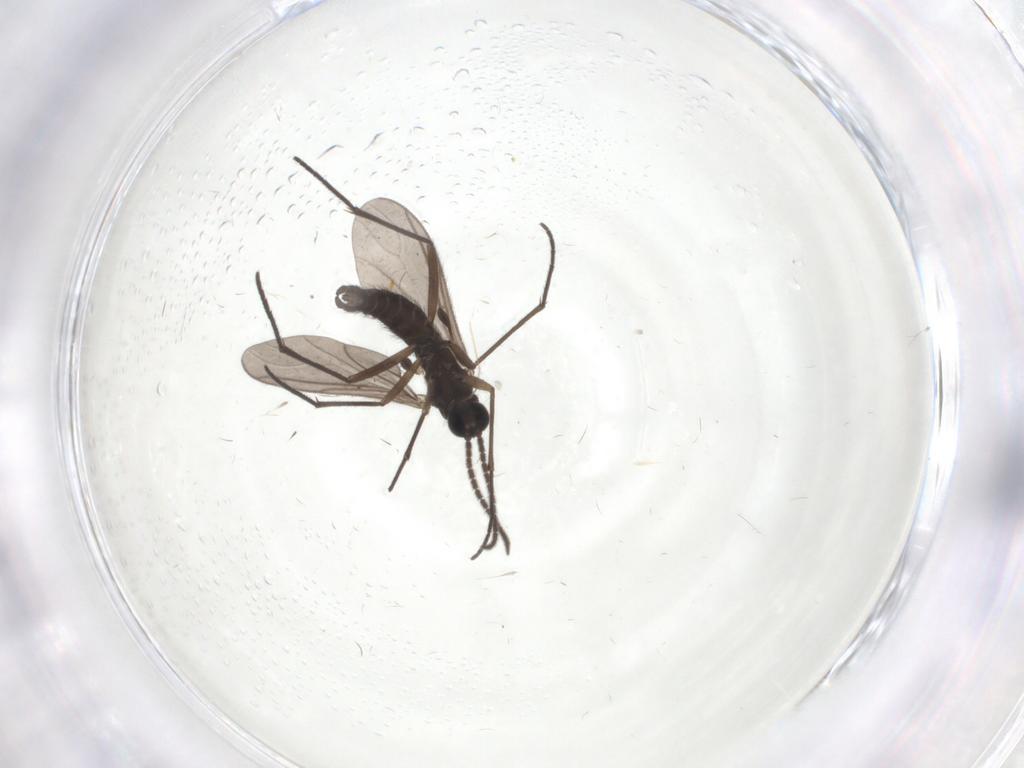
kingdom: Animalia
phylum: Arthropoda
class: Insecta
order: Diptera
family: Sciaridae
